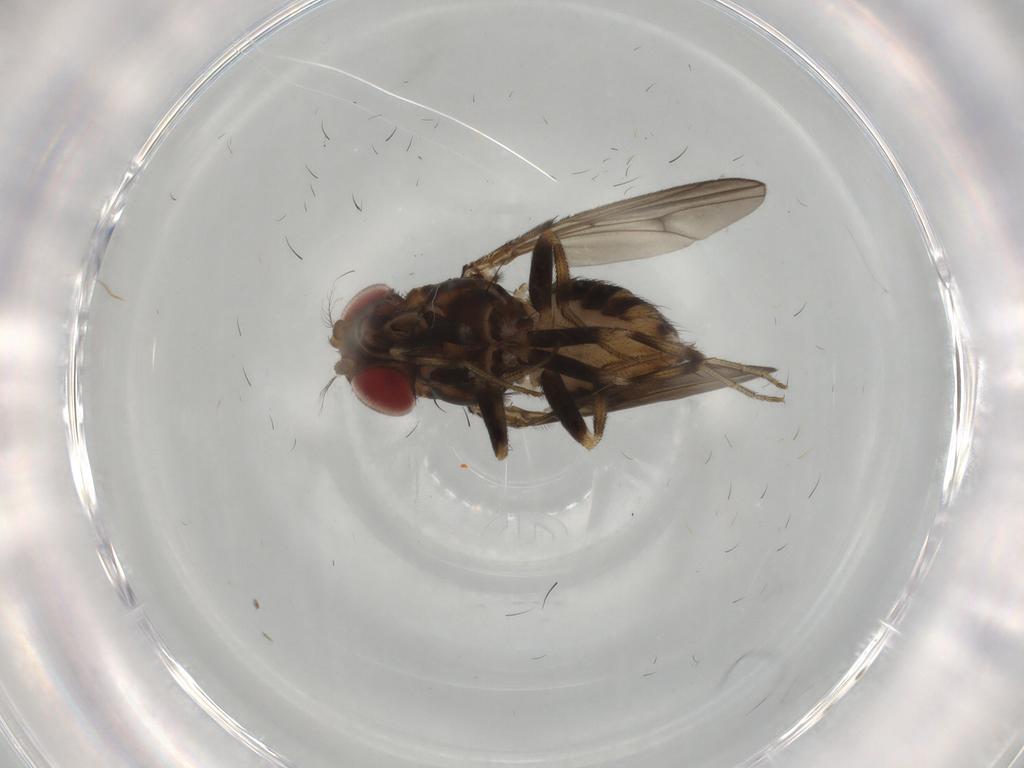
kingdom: Animalia
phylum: Arthropoda
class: Insecta
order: Diptera
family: Drosophilidae
